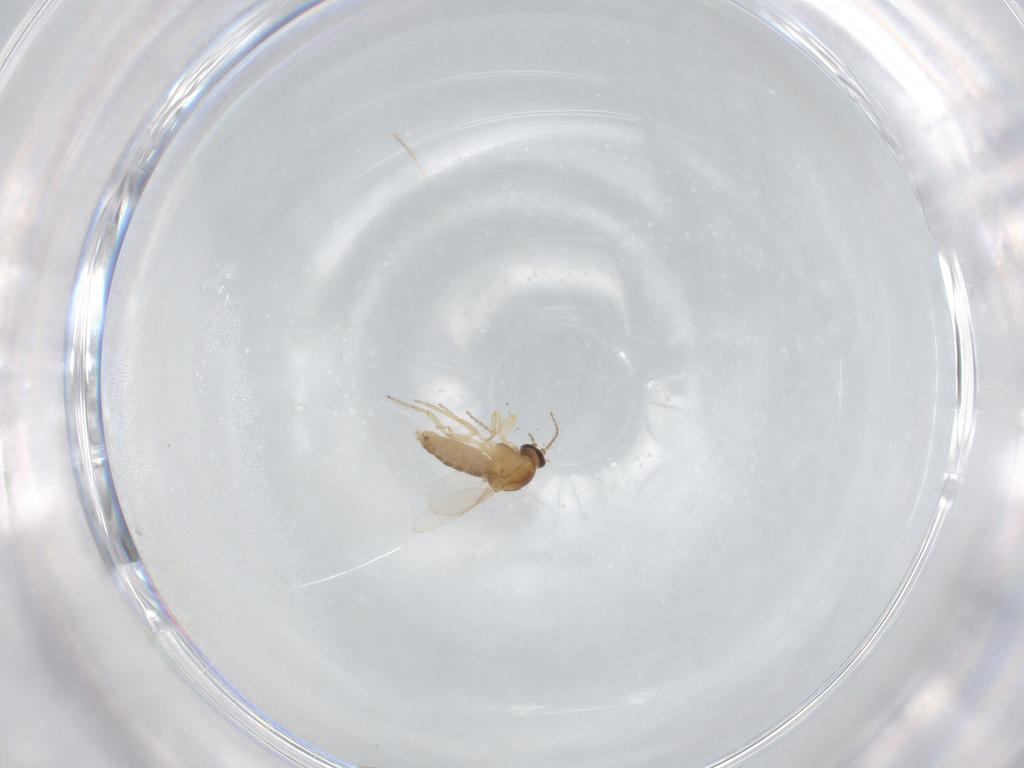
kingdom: Animalia
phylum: Arthropoda
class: Insecta
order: Diptera
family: Ceratopogonidae
